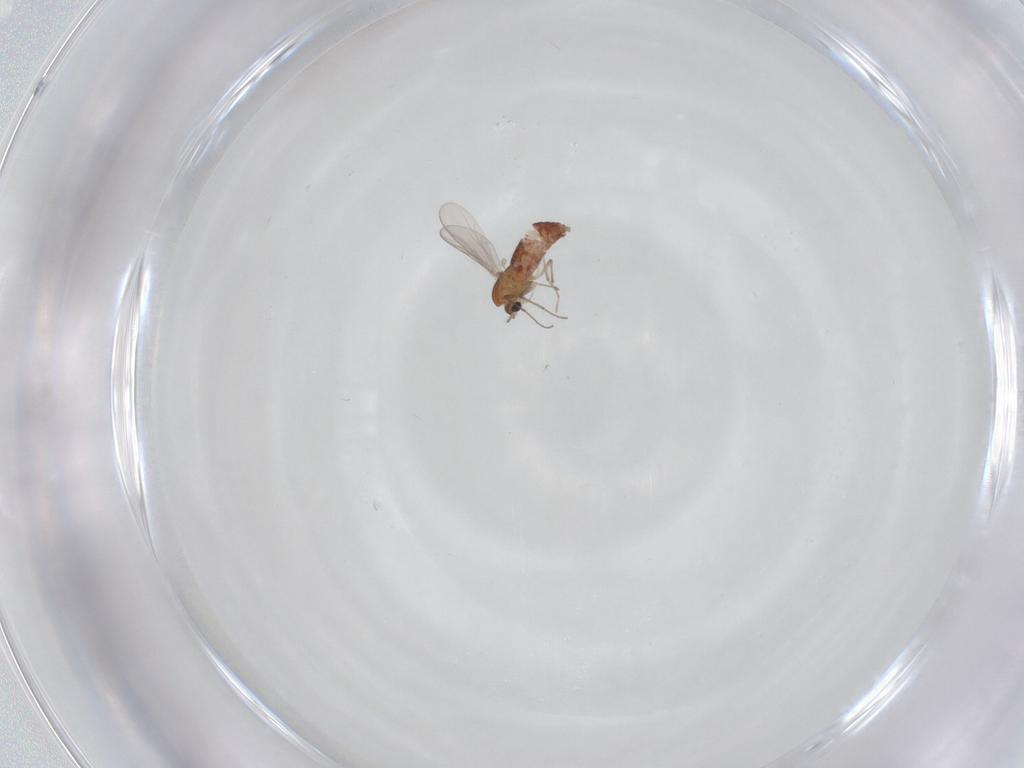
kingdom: Animalia
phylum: Arthropoda
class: Insecta
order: Diptera
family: Chironomidae
